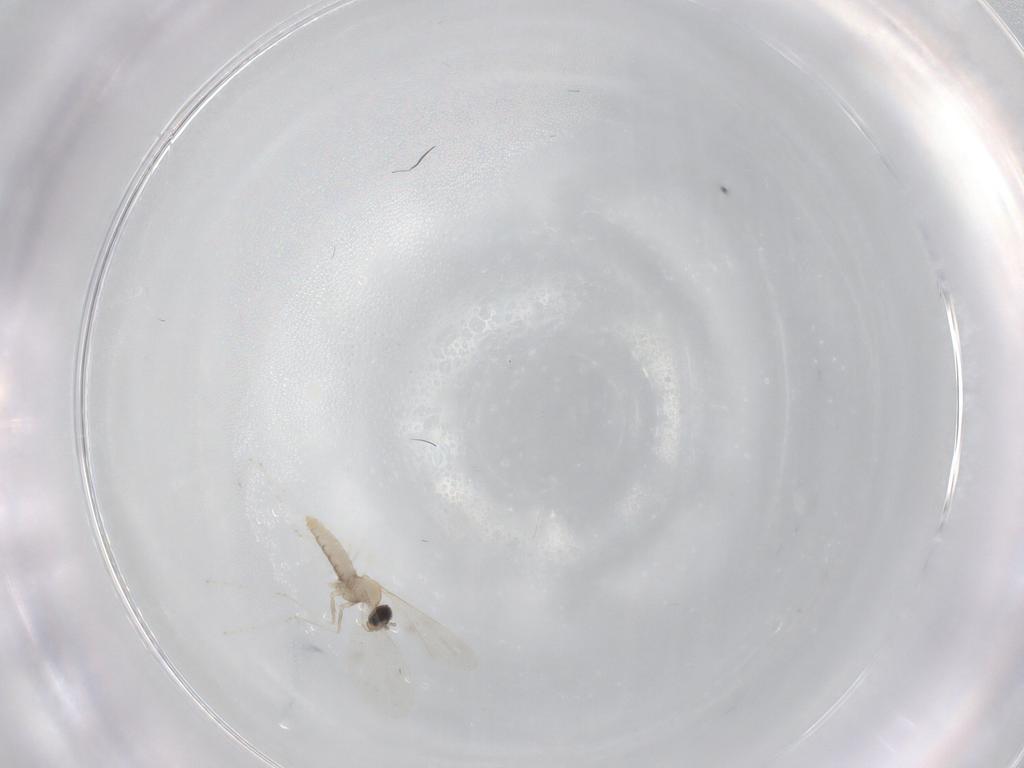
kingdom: Animalia
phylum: Arthropoda
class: Insecta
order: Diptera
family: Cecidomyiidae
